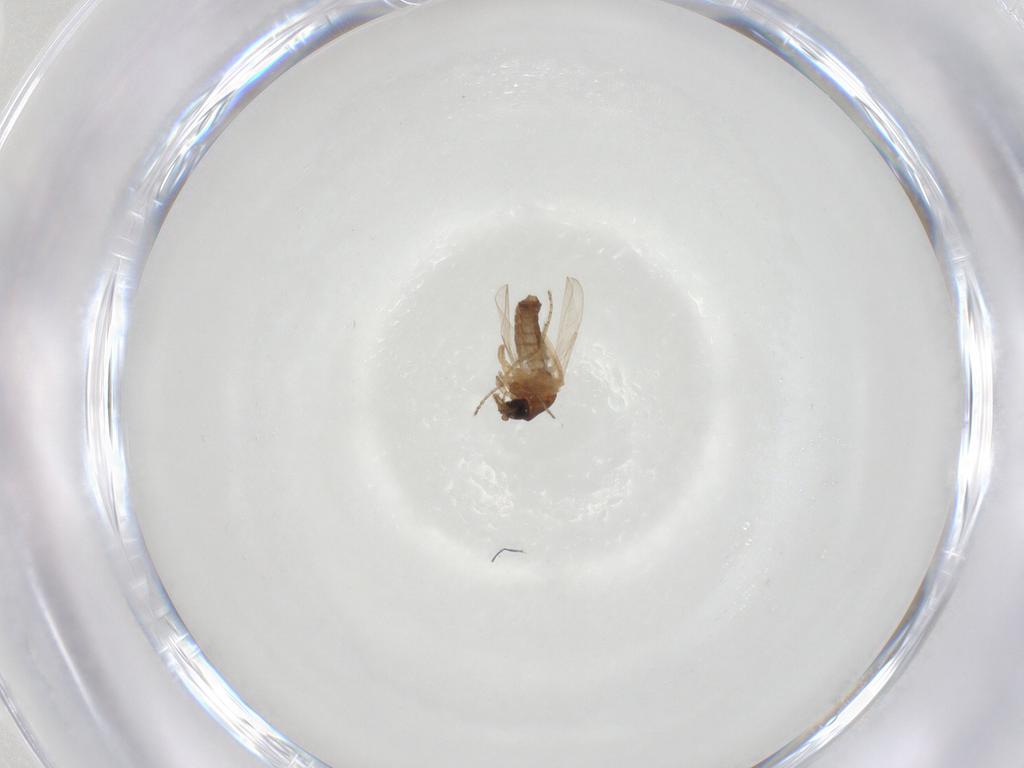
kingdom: Animalia
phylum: Arthropoda
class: Insecta
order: Diptera
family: Ceratopogonidae
